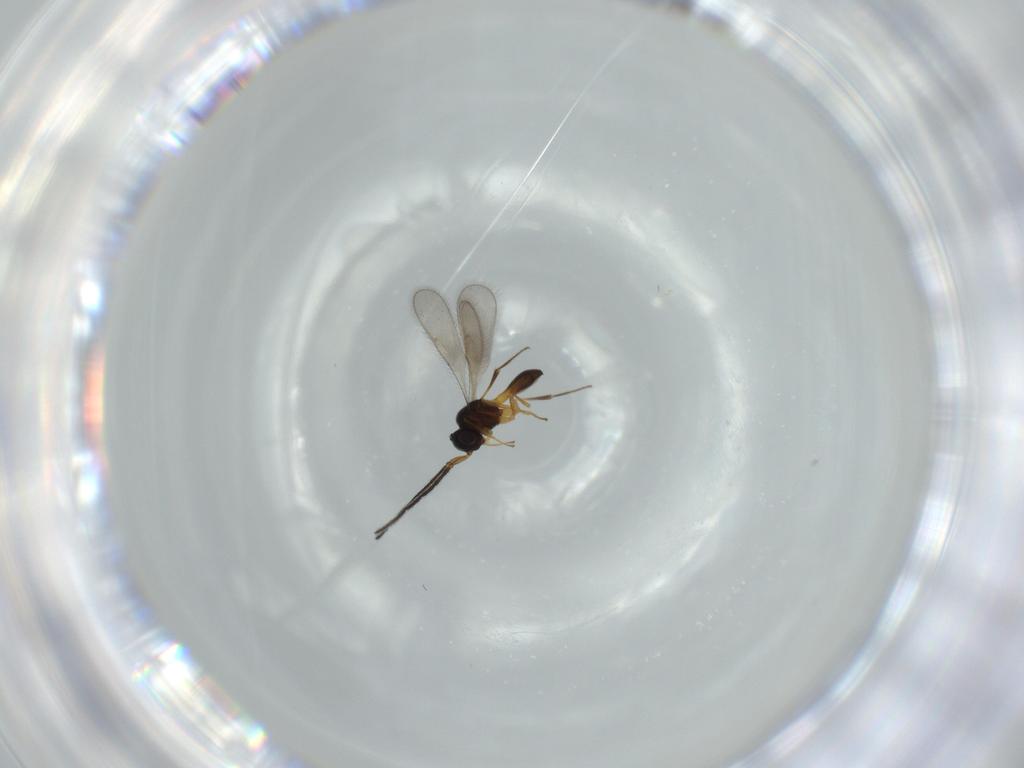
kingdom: Animalia
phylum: Arthropoda
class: Insecta
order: Hymenoptera
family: Scelionidae
